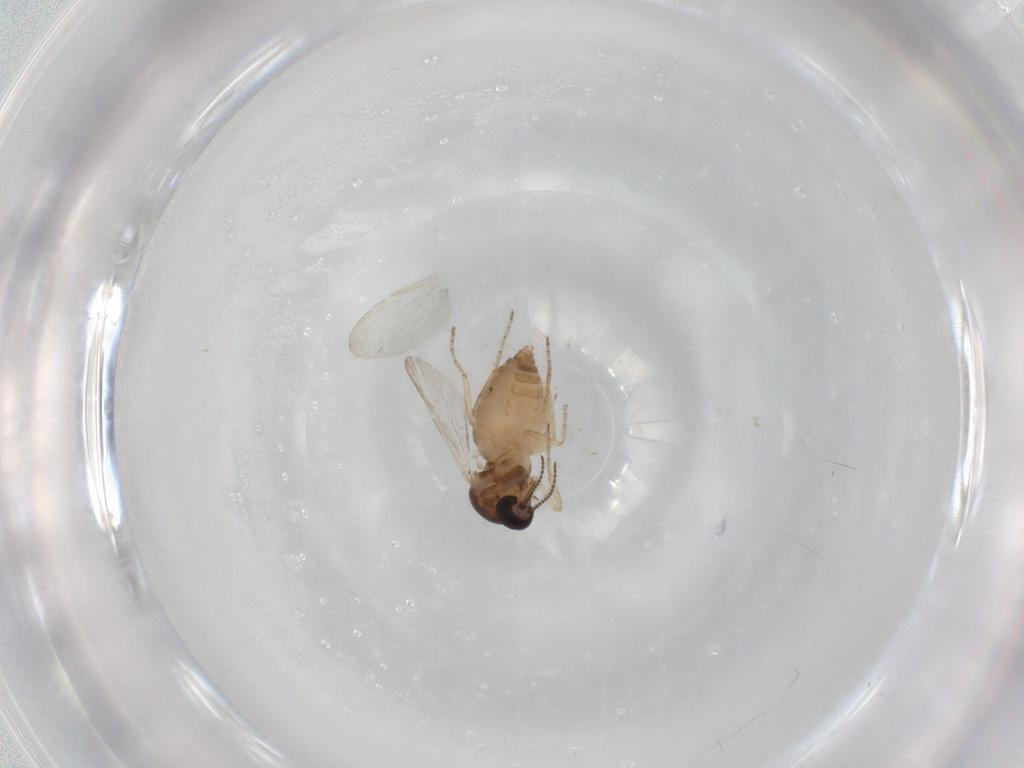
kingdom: Animalia
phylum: Arthropoda
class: Insecta
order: Diptera
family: Ceratopogonidae
